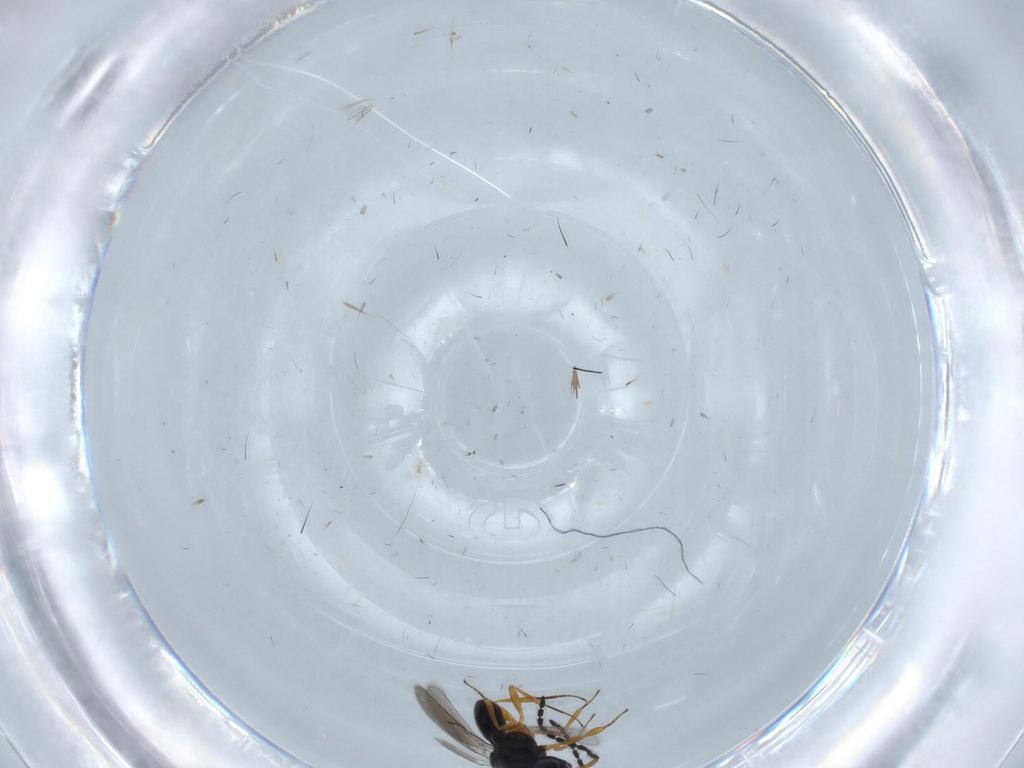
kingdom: Animalia
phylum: Arthropoda
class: Insecta
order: Hymenoptera
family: Scelionidae
